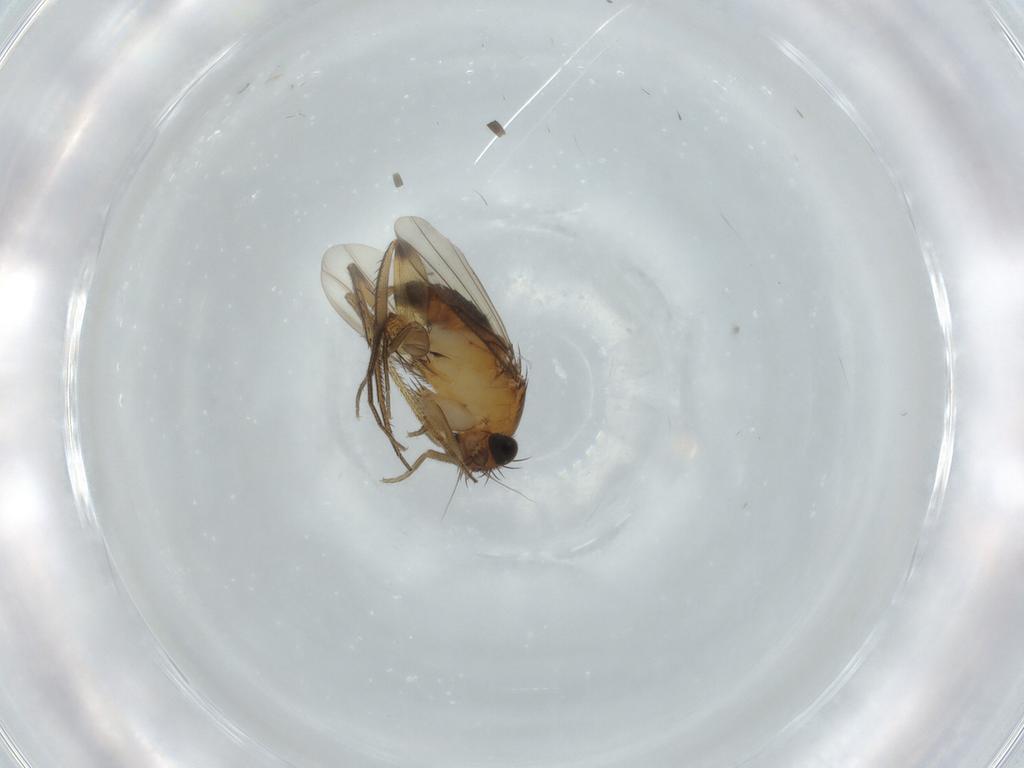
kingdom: Animalia
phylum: Arthropoda
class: Insecta
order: Diptera
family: Phoridae
